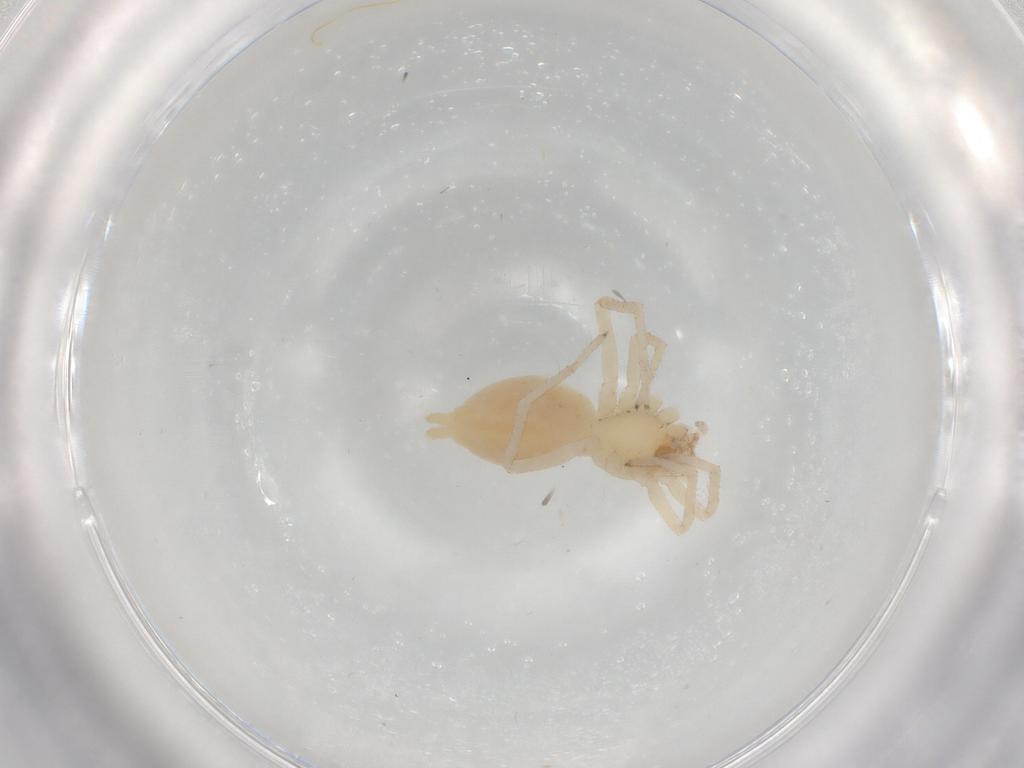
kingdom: Animalia
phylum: Arthropoda
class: Arachnida
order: Araneae
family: Clubionidae
